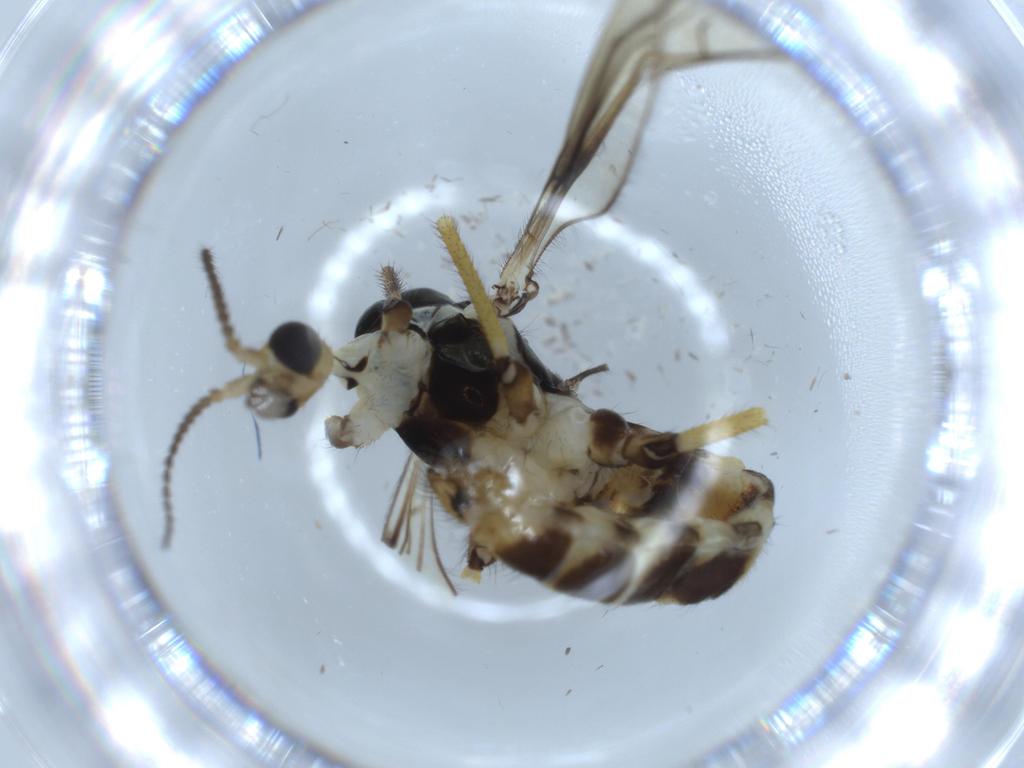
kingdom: Animalia
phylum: Arthropoda
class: Insecta
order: Diptera
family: Limoniidae
